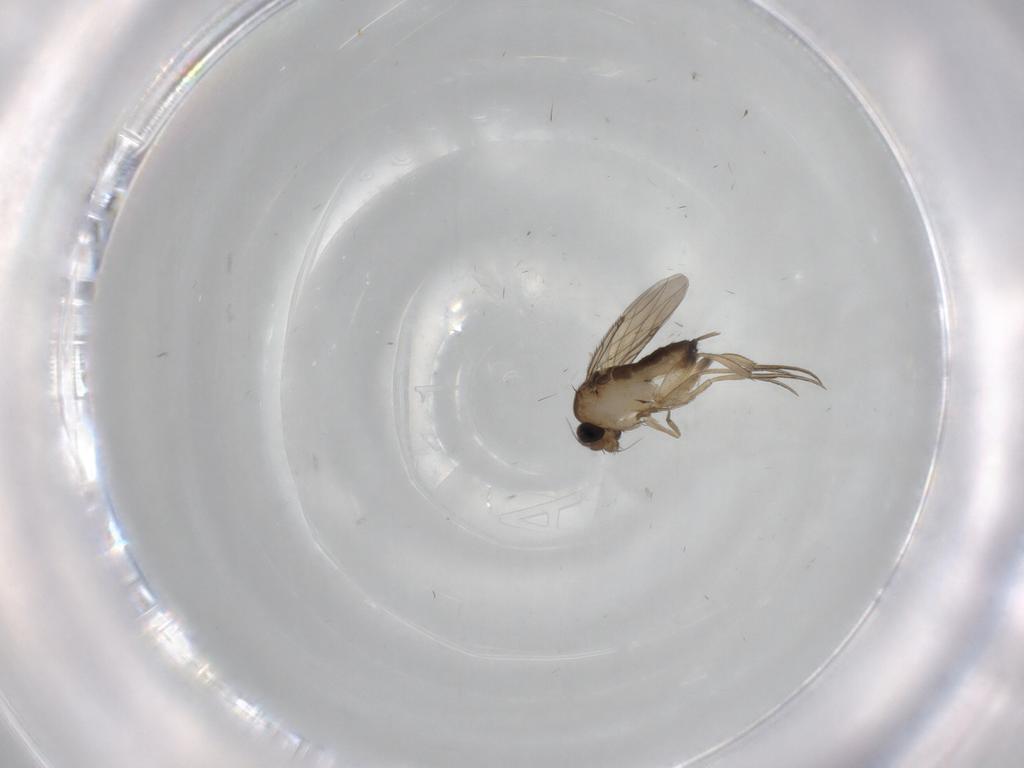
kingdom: Animalia
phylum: Arthropoda
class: Insecta
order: Diptera
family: Phoridae
